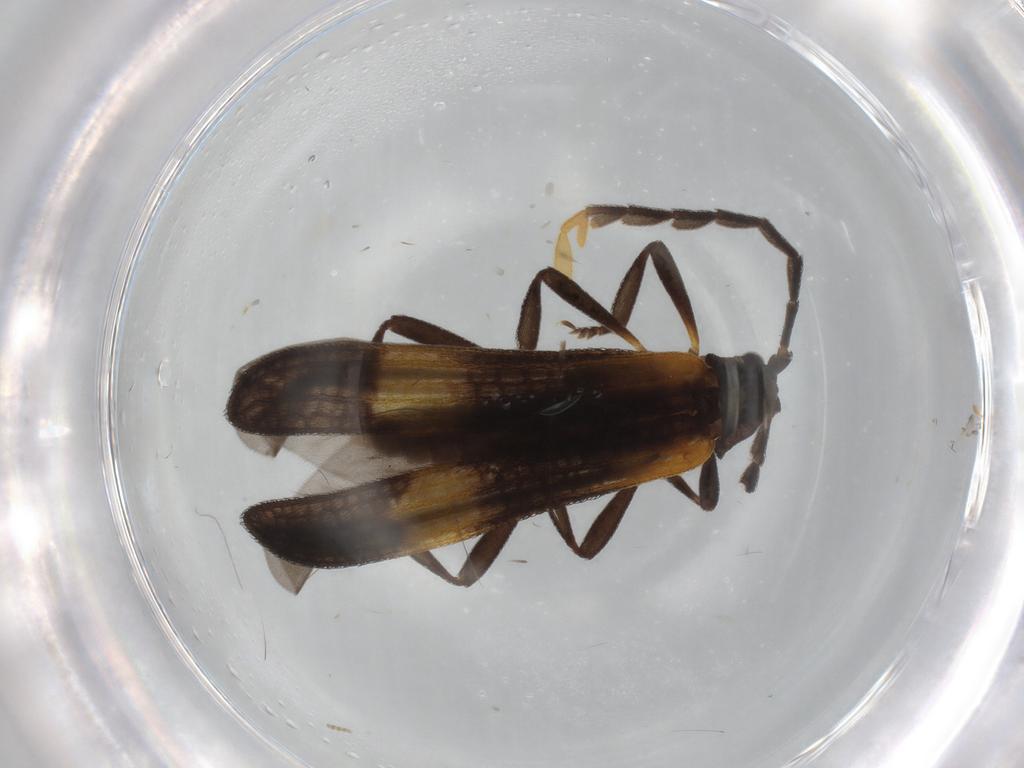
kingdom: Animalia
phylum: Arthropoda
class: Insecta
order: Coleoptera
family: Lycidae
